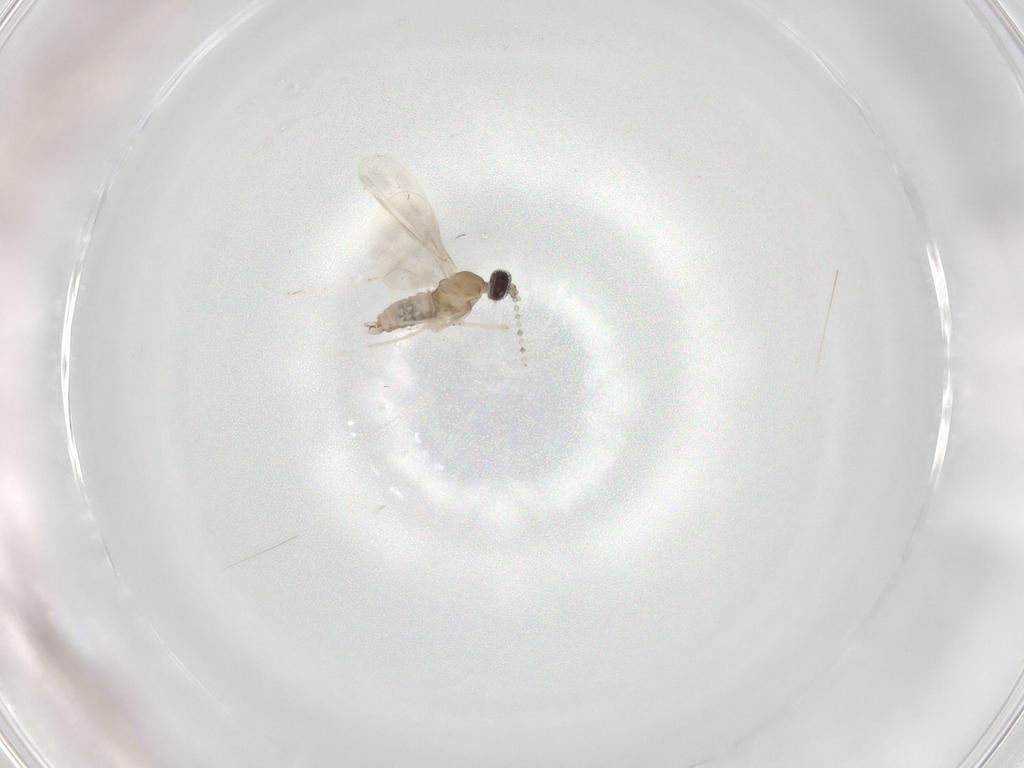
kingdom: Animalia
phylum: Arthropoda
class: Insecta
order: Diptera
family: Cecidomyiidae
